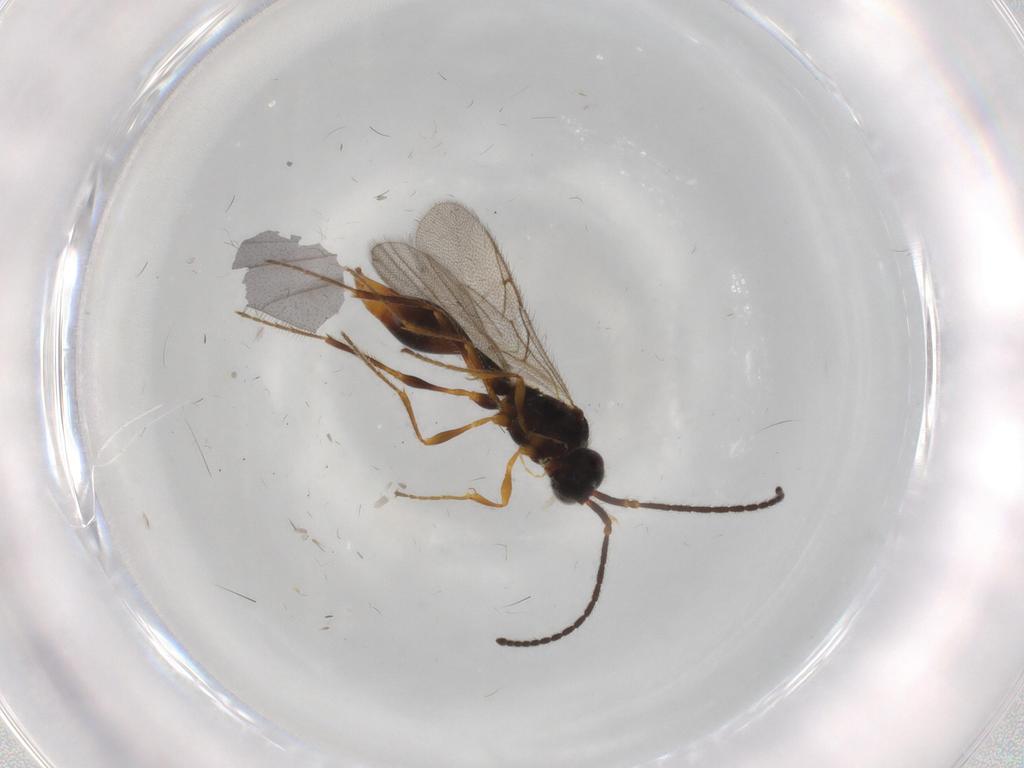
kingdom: Animalia
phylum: Arthropoda
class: Insecta
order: Hymenoptera
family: Diapriidae
